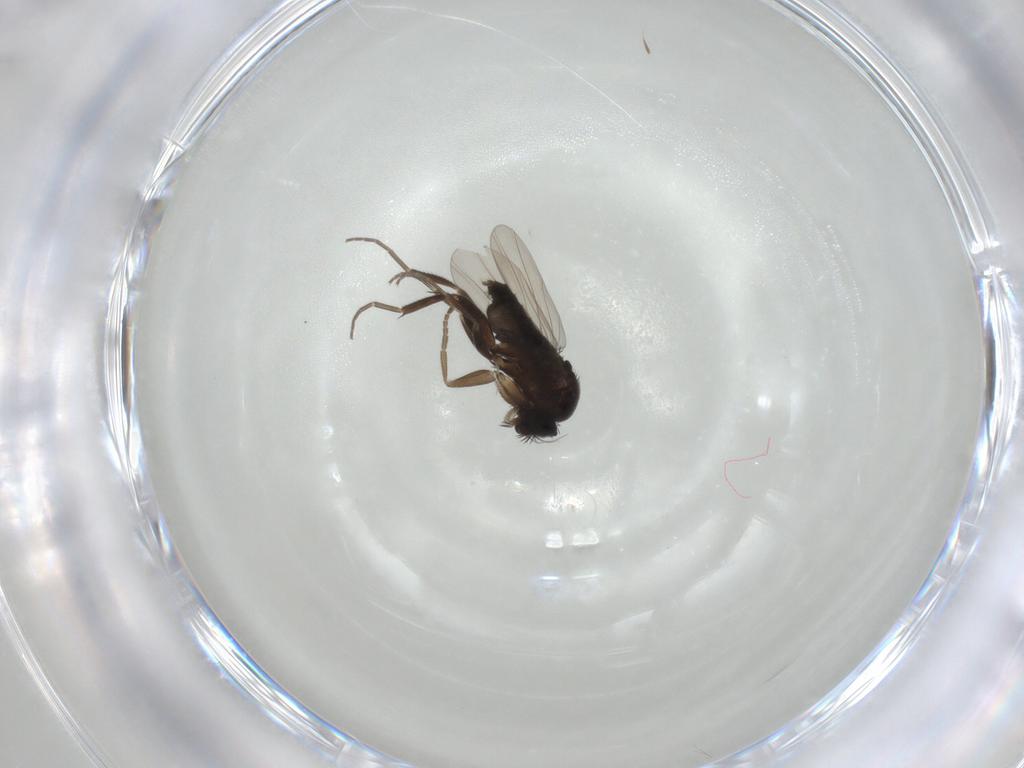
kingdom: Animalia
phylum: Arthropoda
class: Insecta
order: Diptera
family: Phoridae
